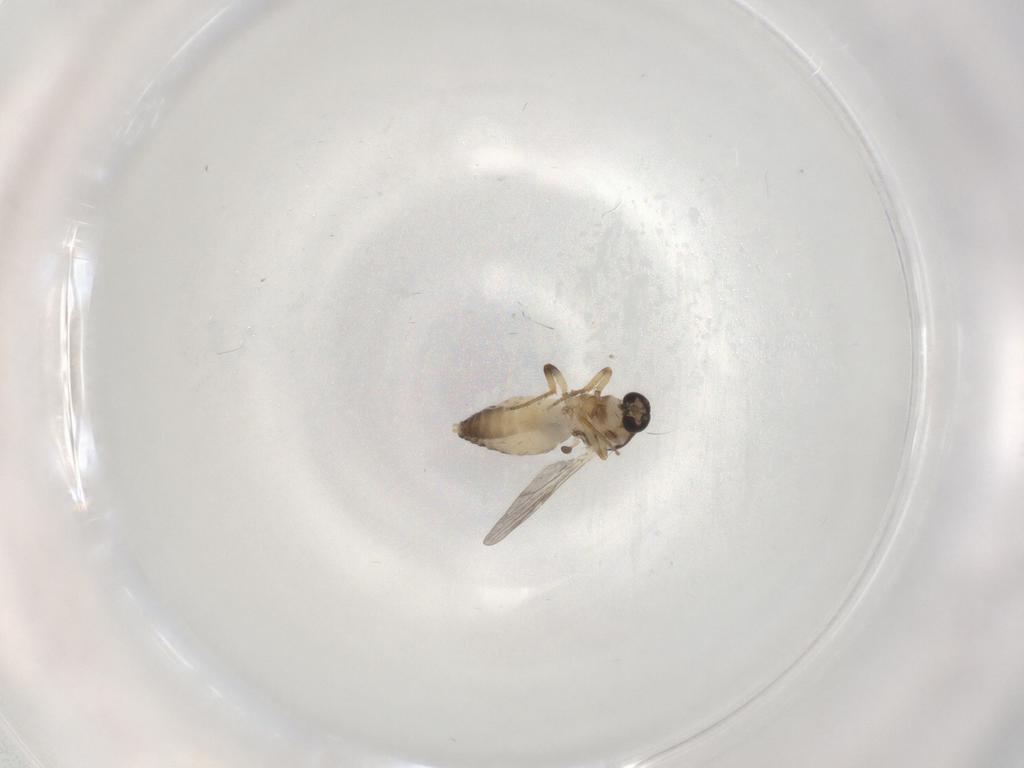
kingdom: Animalia
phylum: Arthropoda
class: Insecta
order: Diptera
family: Ceratopogonidae
